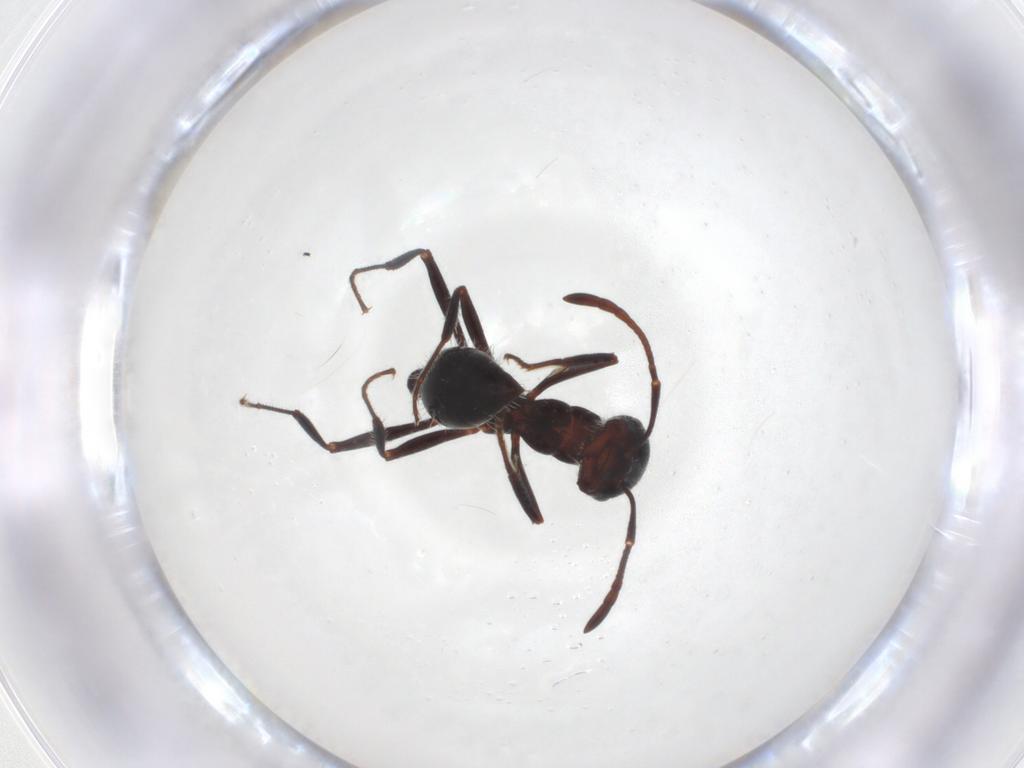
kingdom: Animalia
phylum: Arthropoda
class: Insecta
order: Hymenoptera
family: Formicidae
